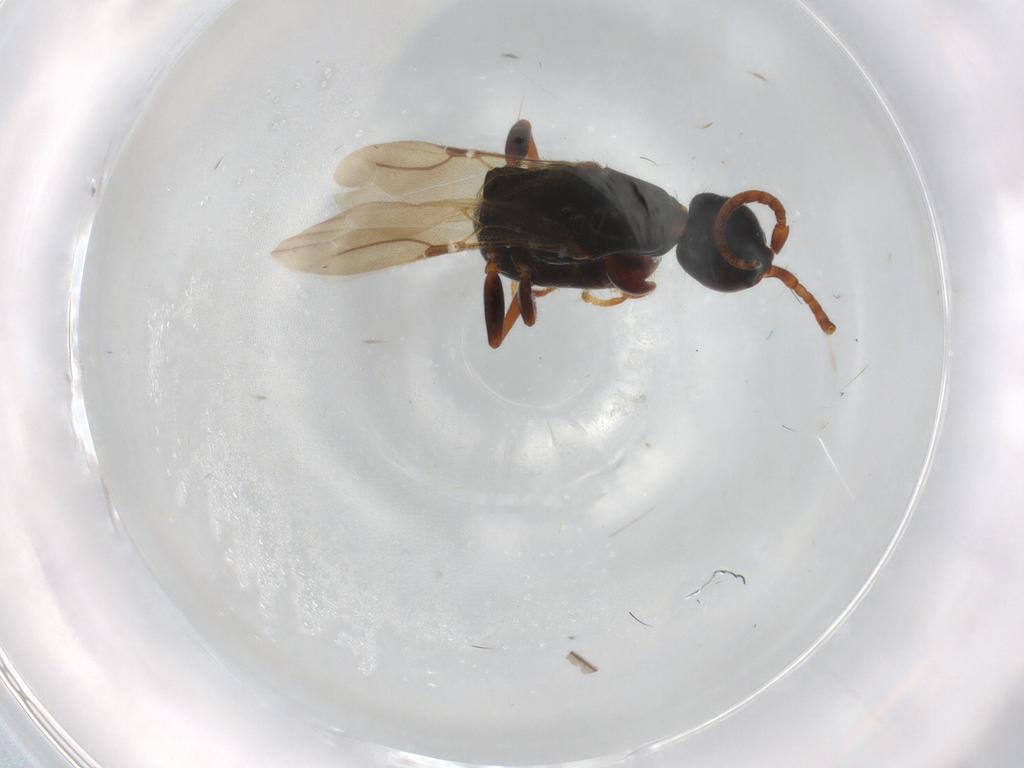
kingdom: Animalia
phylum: Arthropoda
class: Insecta
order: Hymenoptera
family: Bethylidae
